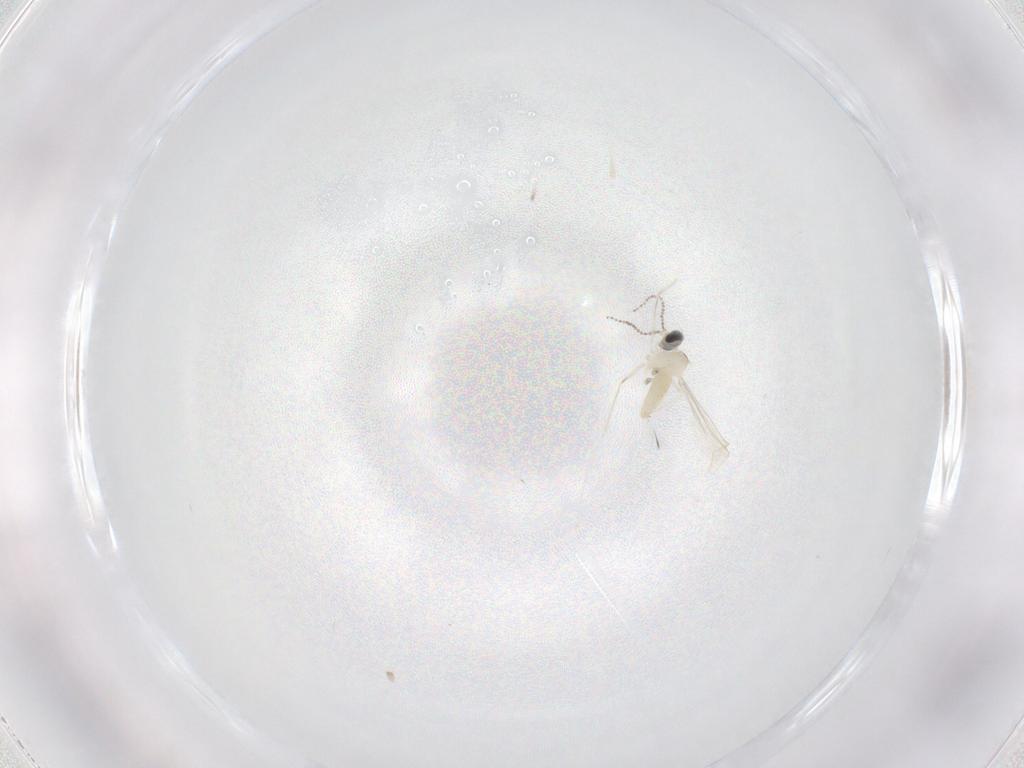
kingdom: Animalia
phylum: Arthropoda
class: Insecta
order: Diptera
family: Cecidomyiidae
